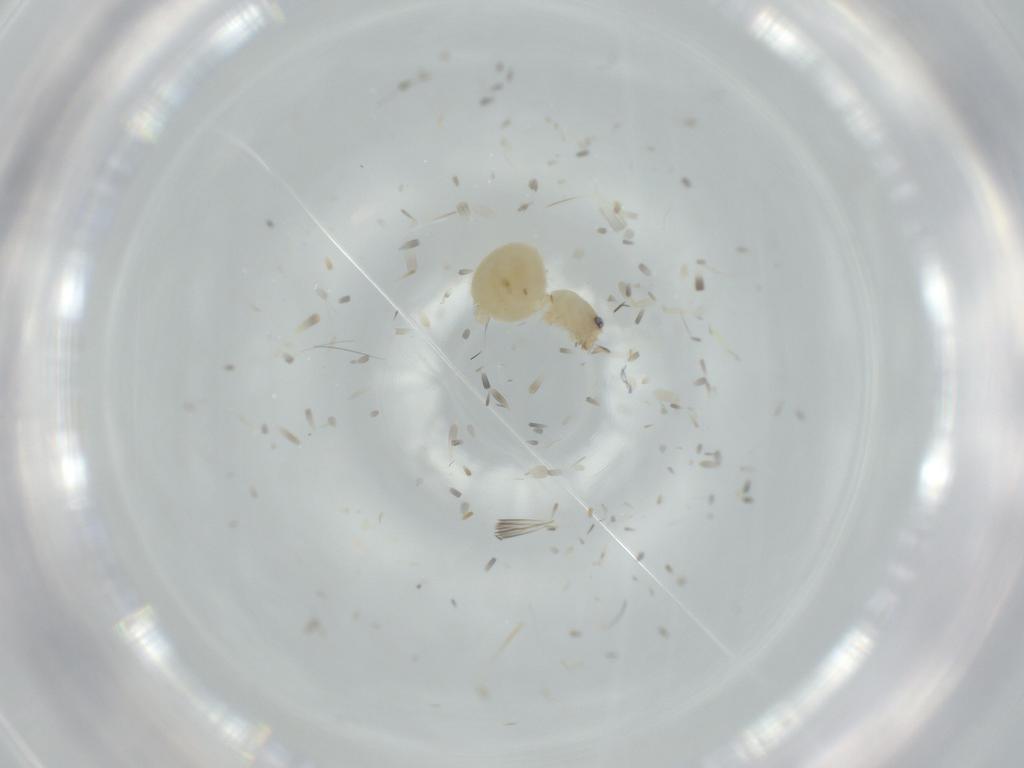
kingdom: Animalia
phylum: Arthropoda
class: Arachnida
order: Araneae
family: Oonopidae
